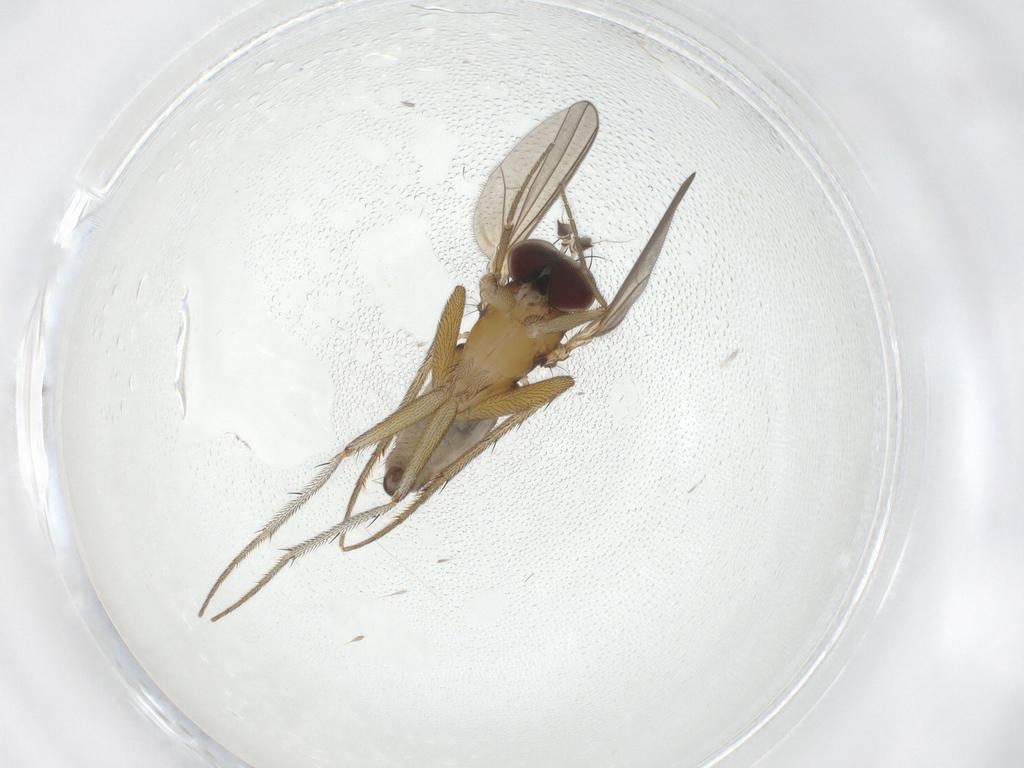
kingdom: Animalia
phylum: Arthropoda
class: Insecta
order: Diptera
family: Dolichopodidae
